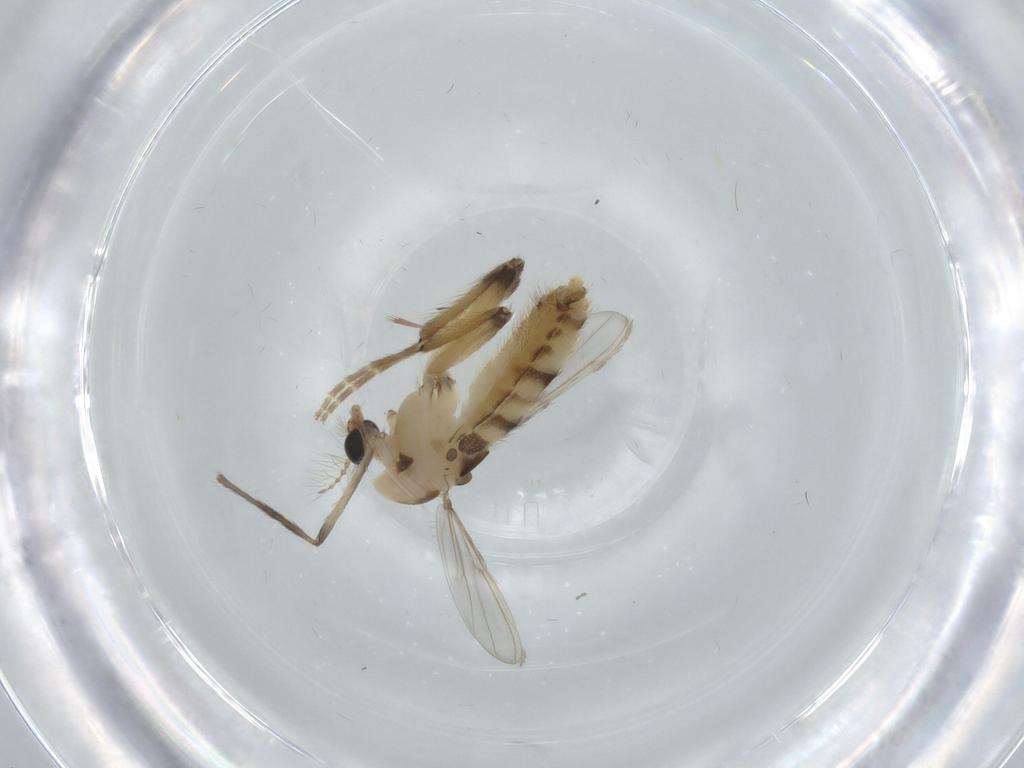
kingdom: Animalia
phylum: Arthropoda
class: Insecta
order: Diptera
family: Chironomidae
